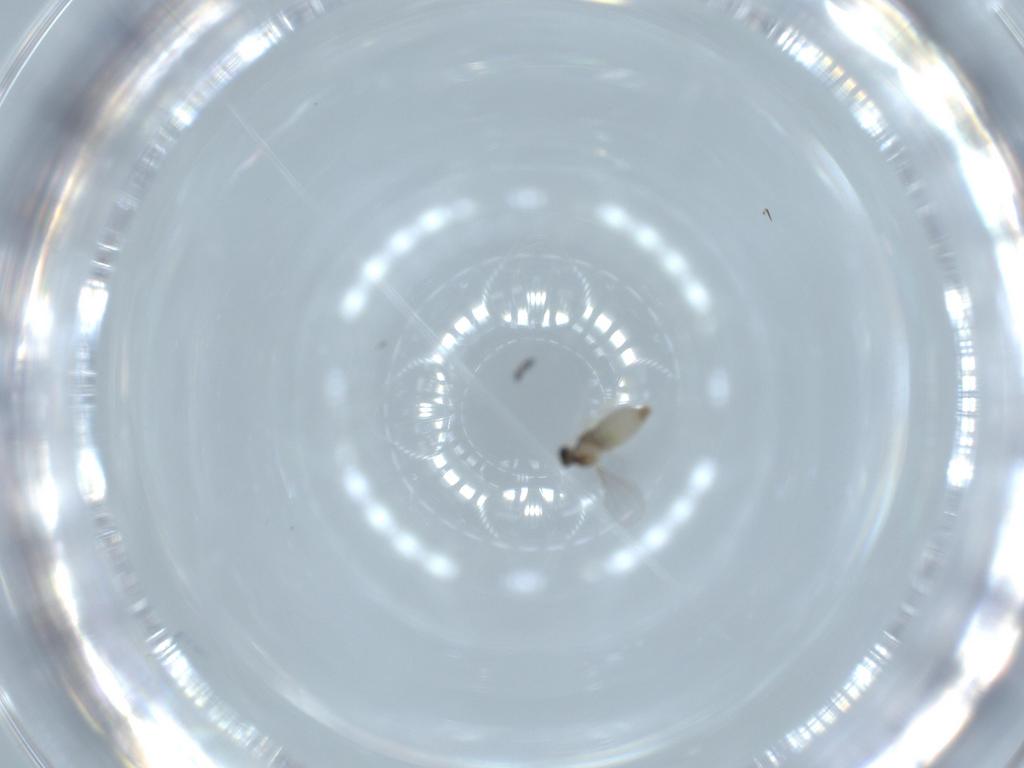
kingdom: Animalia
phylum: Arthropoda
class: Insecta
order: Diptera
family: Cecidomyiidae
